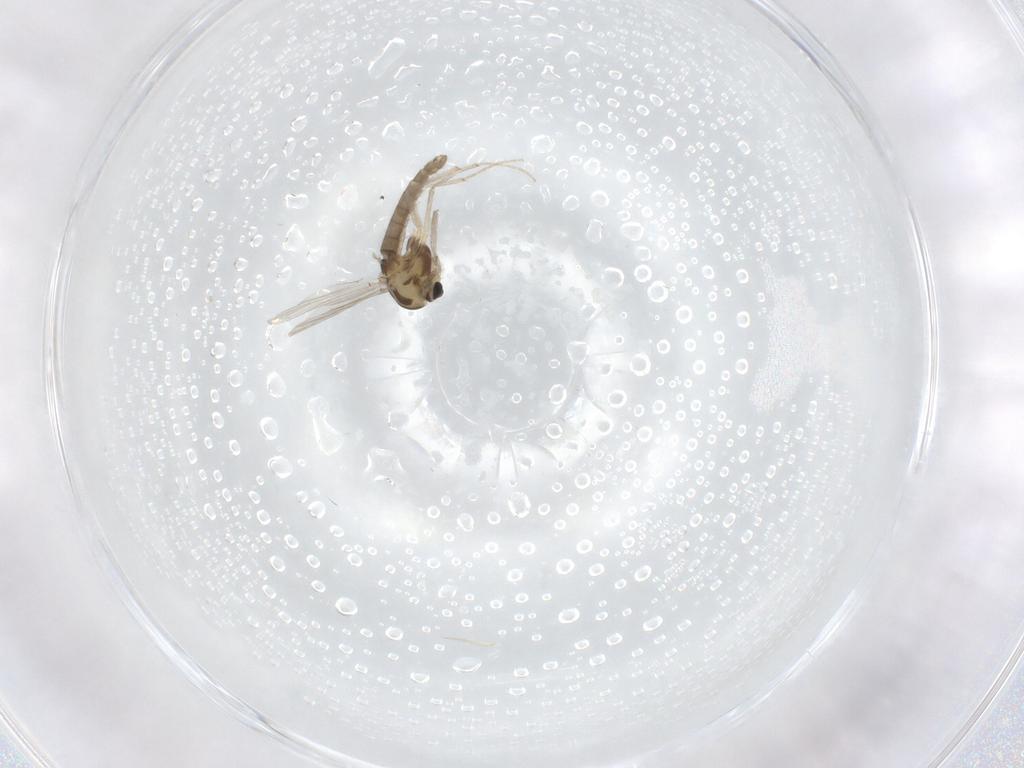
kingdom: Animalia
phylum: Arthropoda
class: Insecta
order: Diptera
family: Chironomidae
